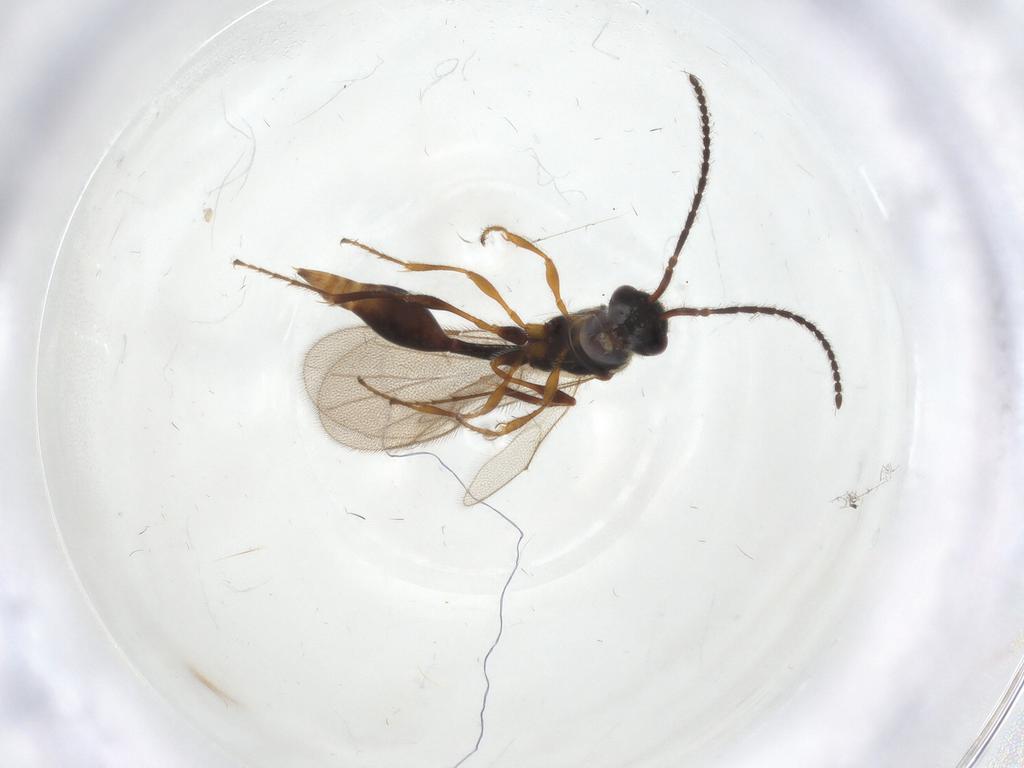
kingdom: Animalia
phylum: Arthropoda
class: Insecta
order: Hymenoptera
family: Diapriidae
